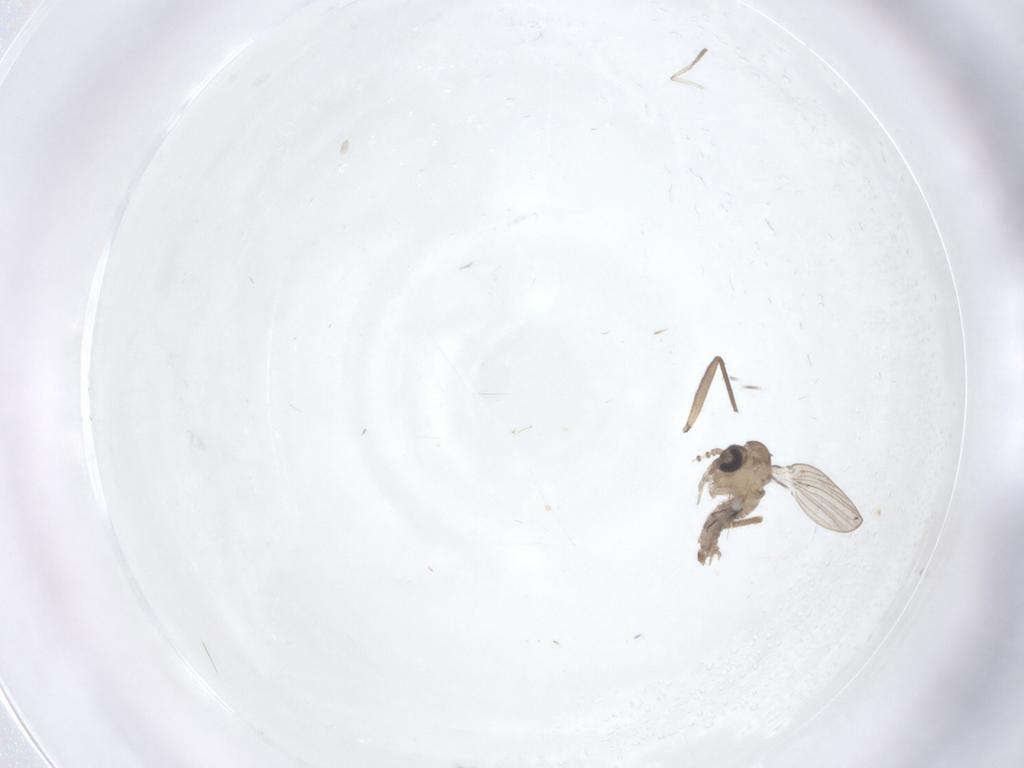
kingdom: Animalia
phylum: Arthropoda
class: Insecta
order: Diptera
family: Psychodidae
